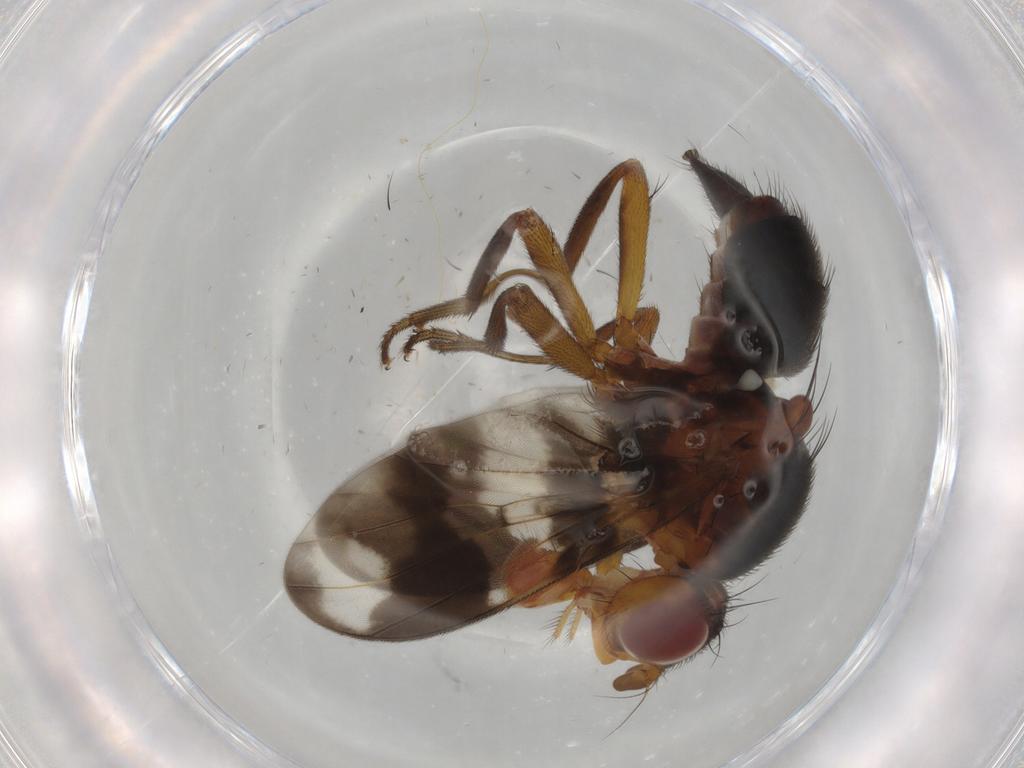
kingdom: Animalia
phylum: Arthropoda
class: Insecta
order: Diptera
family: Richardiidae
